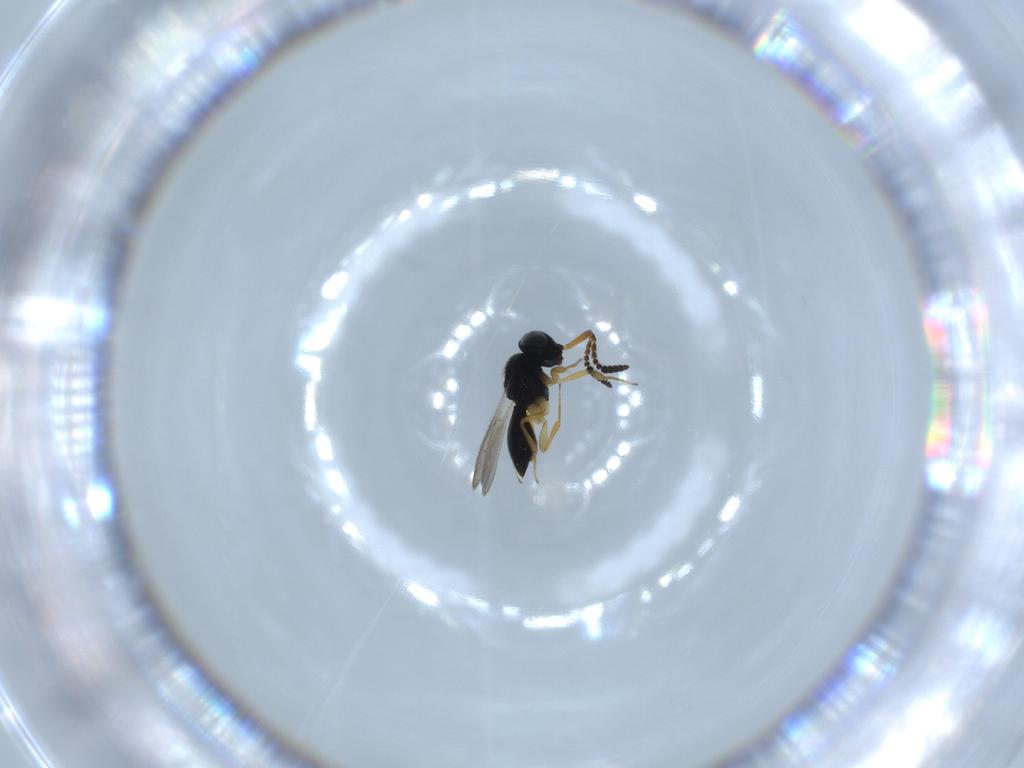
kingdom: Animalia
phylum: Arthropoda
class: Insecta
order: Hymenoptera
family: Scelionidae
